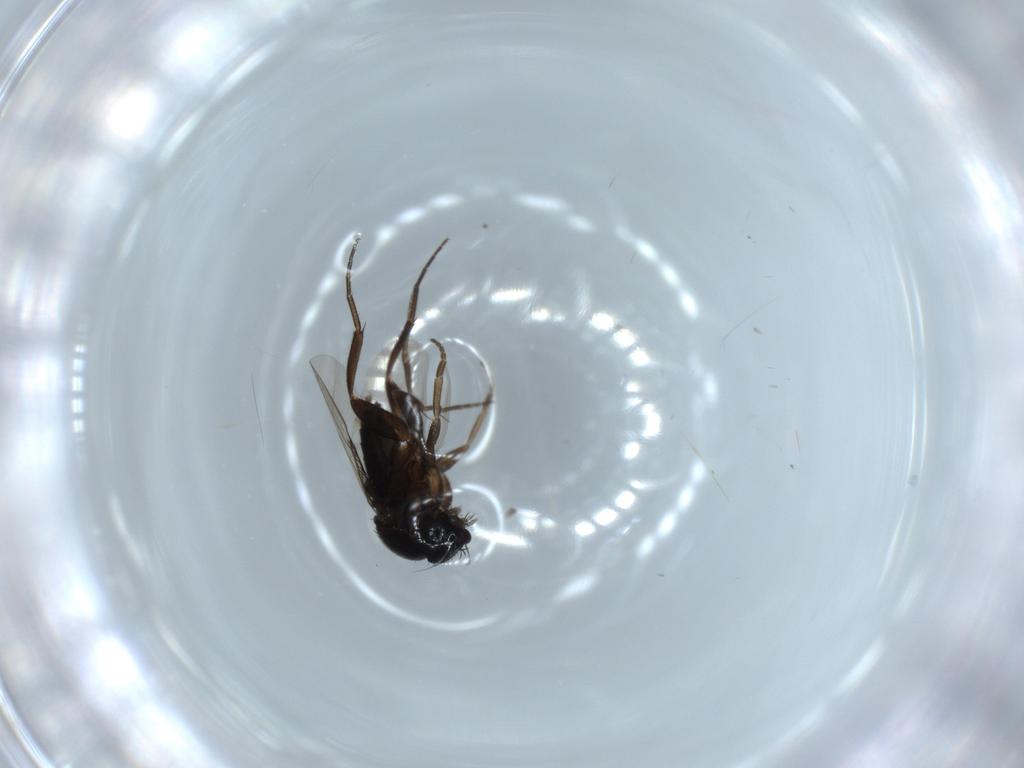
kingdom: Animalia
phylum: Arthropoda
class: Insecta
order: Diptera
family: Phoridae
